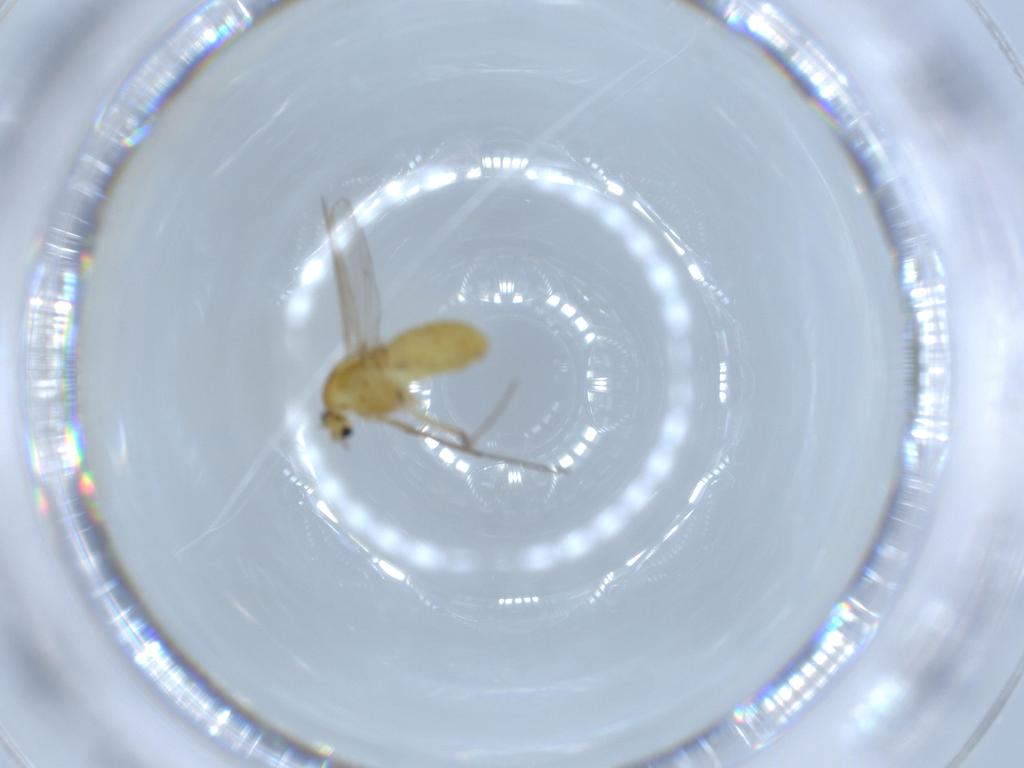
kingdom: Animalia
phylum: Arthropoda
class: Insecta
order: Diptera
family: Chironomidae
